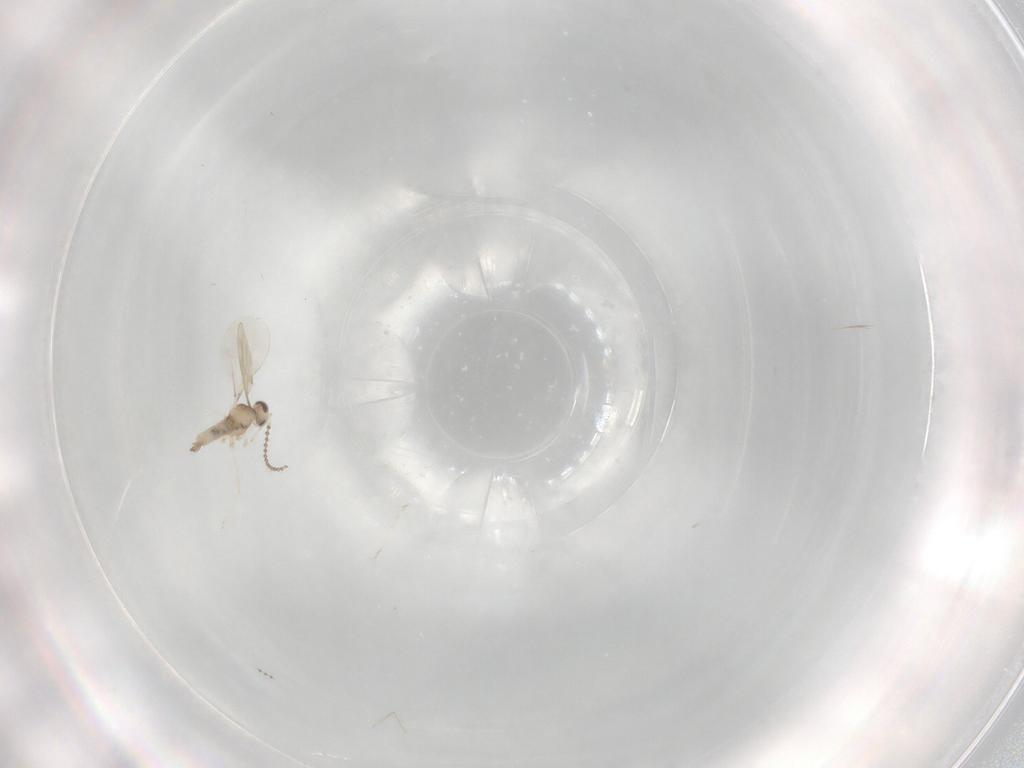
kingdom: Animalia
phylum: Arthropoda
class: Insecta
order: Diptera
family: Cecidomyiidae
